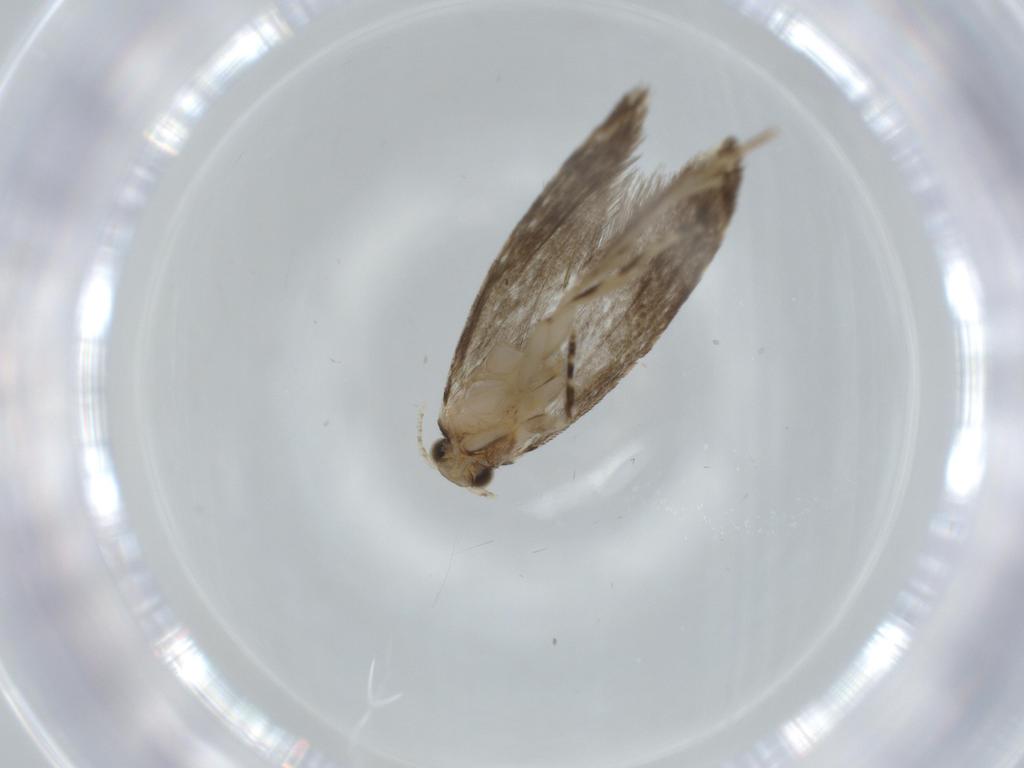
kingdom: Animalia
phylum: Arthropoda
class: Insecta
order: Lepidoptera
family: Tineidae
